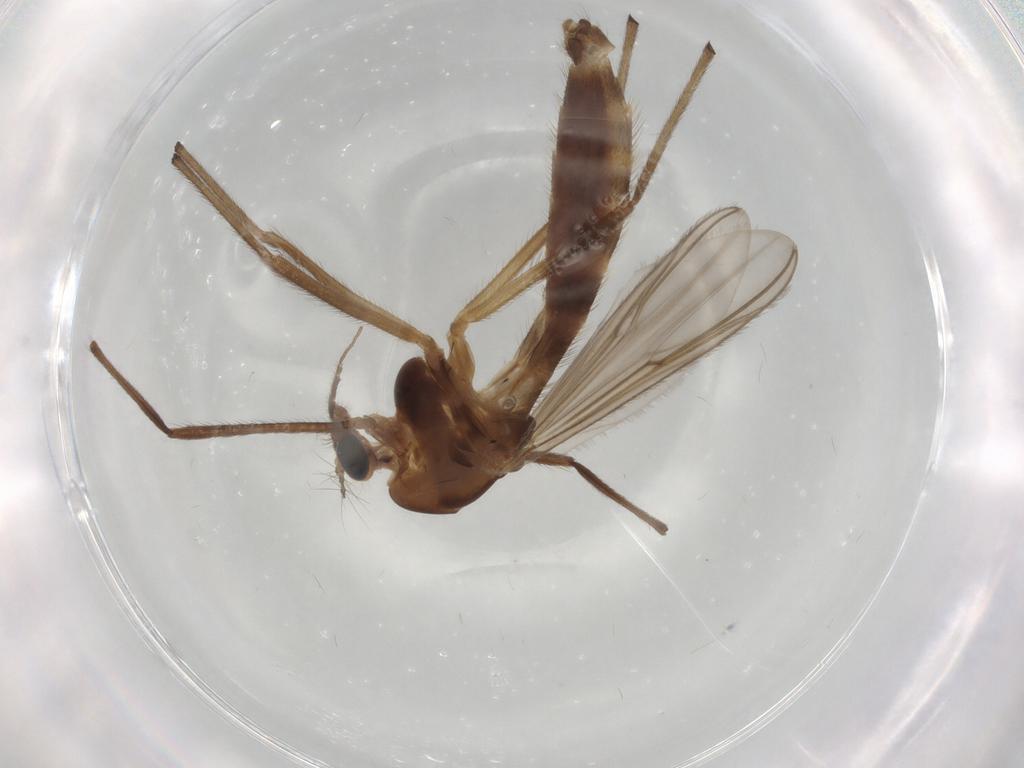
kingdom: Animalia
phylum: Arthropoda
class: Insecta
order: Diptera
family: Chironomidae
